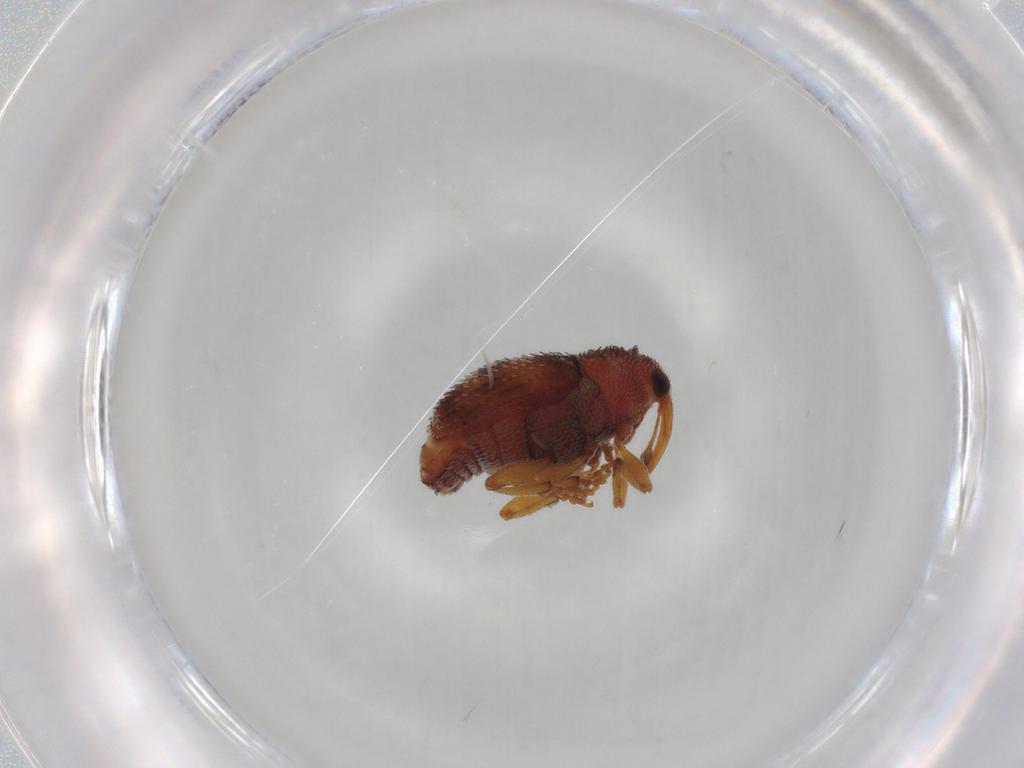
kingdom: Animalia
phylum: Arthropoda
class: Insecta
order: Coleoptera
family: Curculionidae
